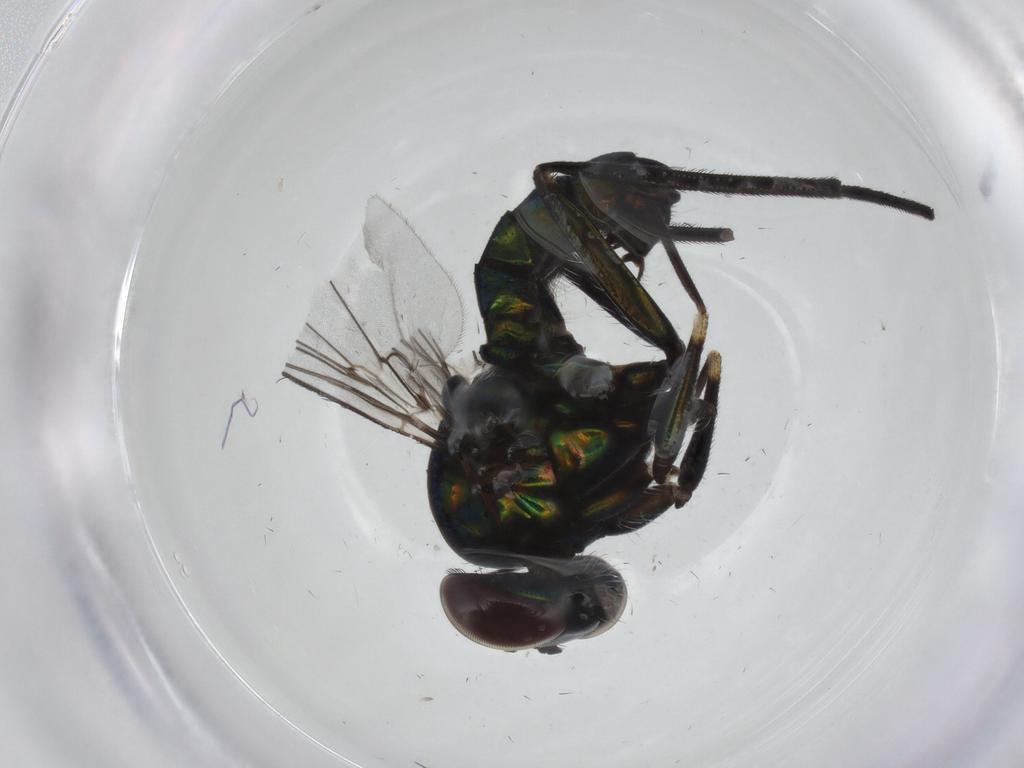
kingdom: Animalia
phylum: Arthropoda
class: Insecta
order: Diptera
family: Dolichopodidae
